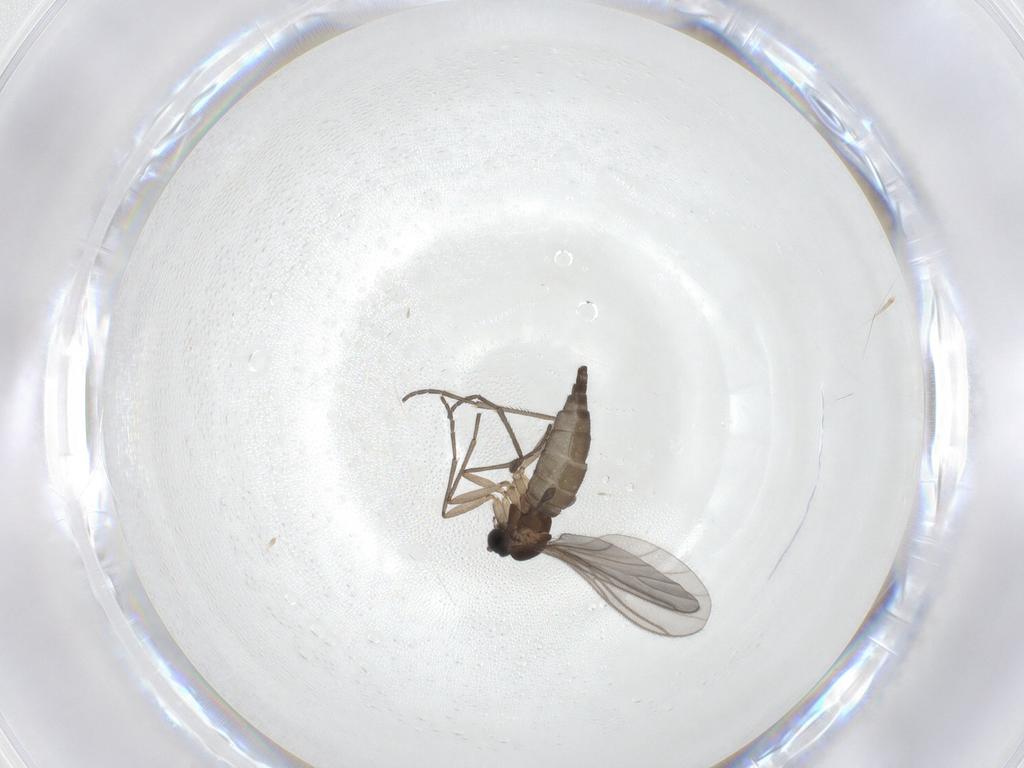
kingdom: Animalia
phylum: Arthropoda
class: Insecta
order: Diptera
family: Sciaridae
